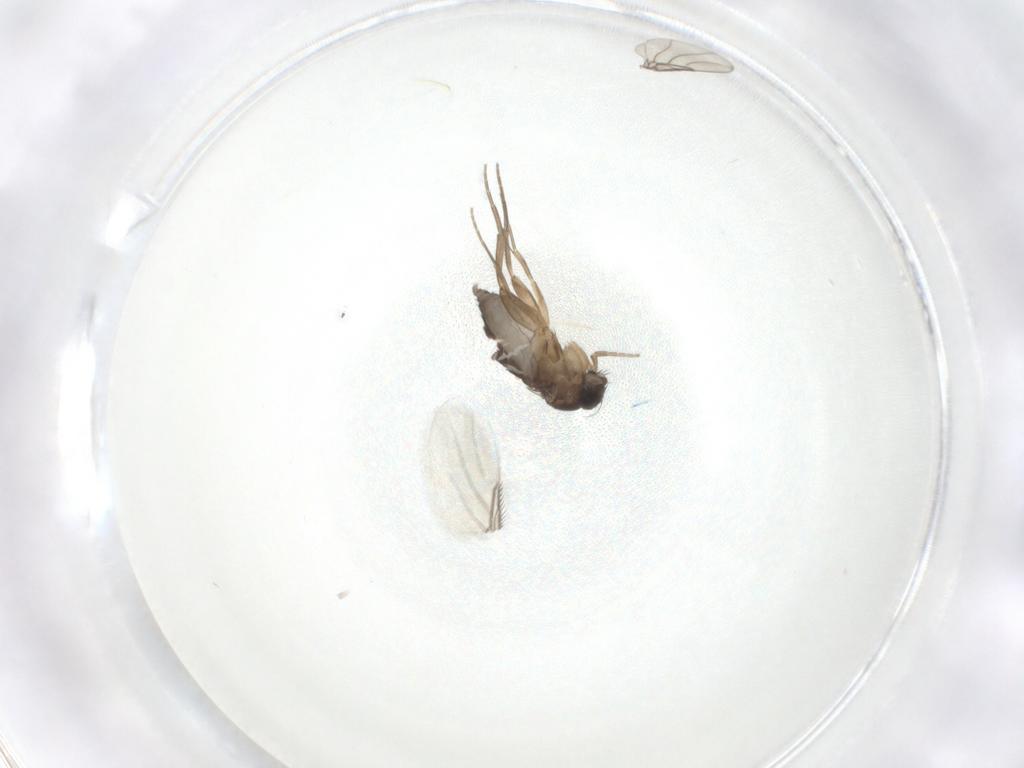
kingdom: Animalia
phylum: Arthropoda
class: Insecta
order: Diptera
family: Phoridae
